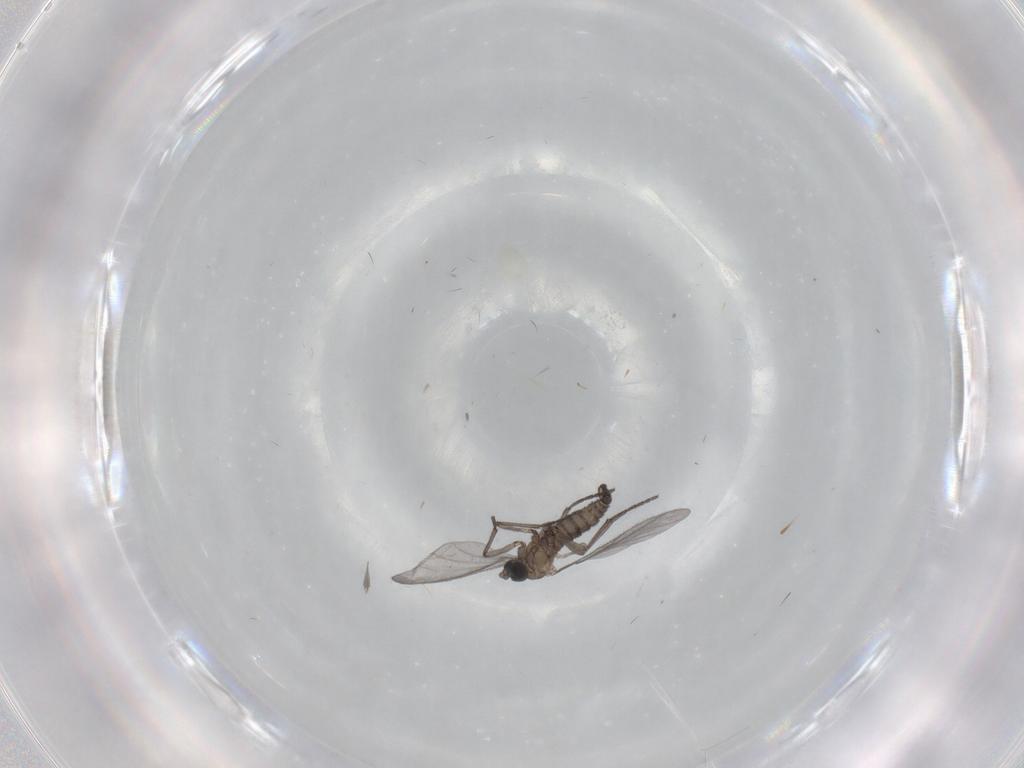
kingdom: Animalia
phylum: Arthropoda
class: Insecta
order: Diptera
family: Sciaridae
